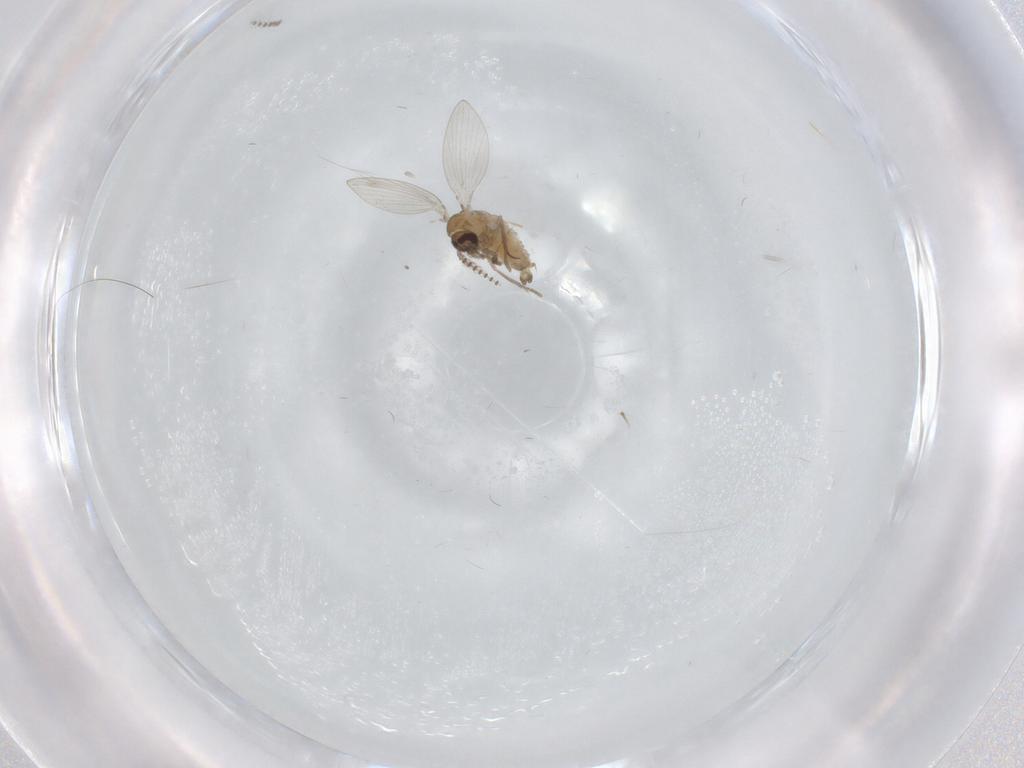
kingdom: Animalia
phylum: Arthropoda
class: Insecta
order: Diptera
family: Psychodidae
